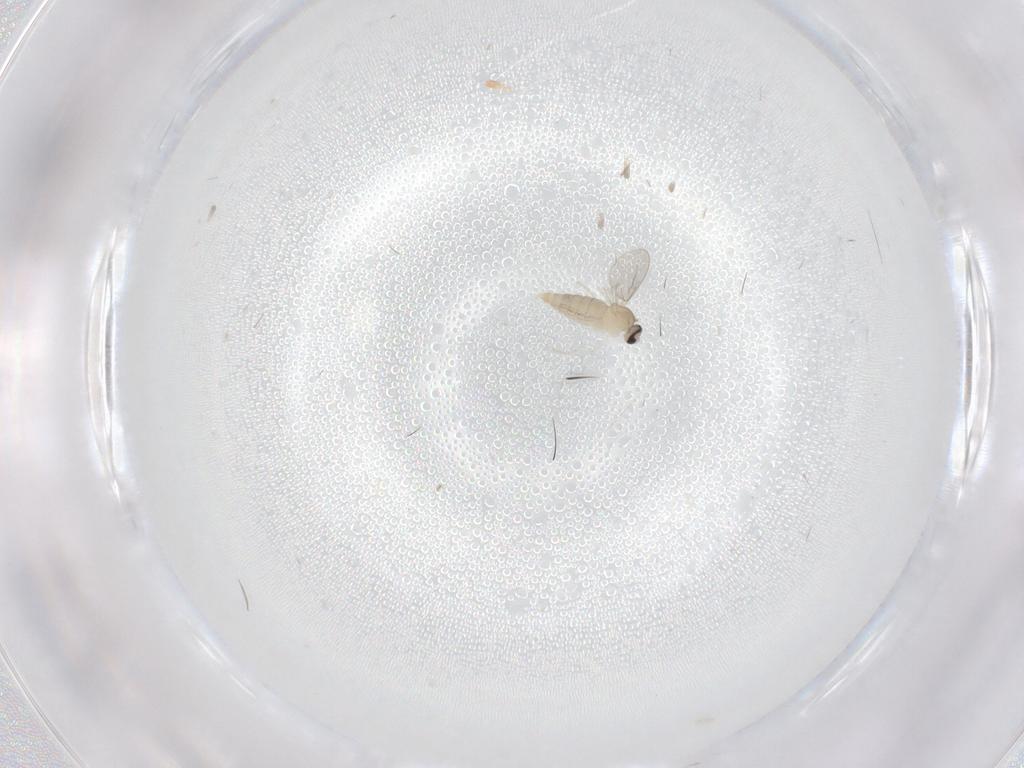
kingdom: Animalia
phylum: Arthropoda
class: Insecta
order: Diptera
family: Cecidomyiidae
